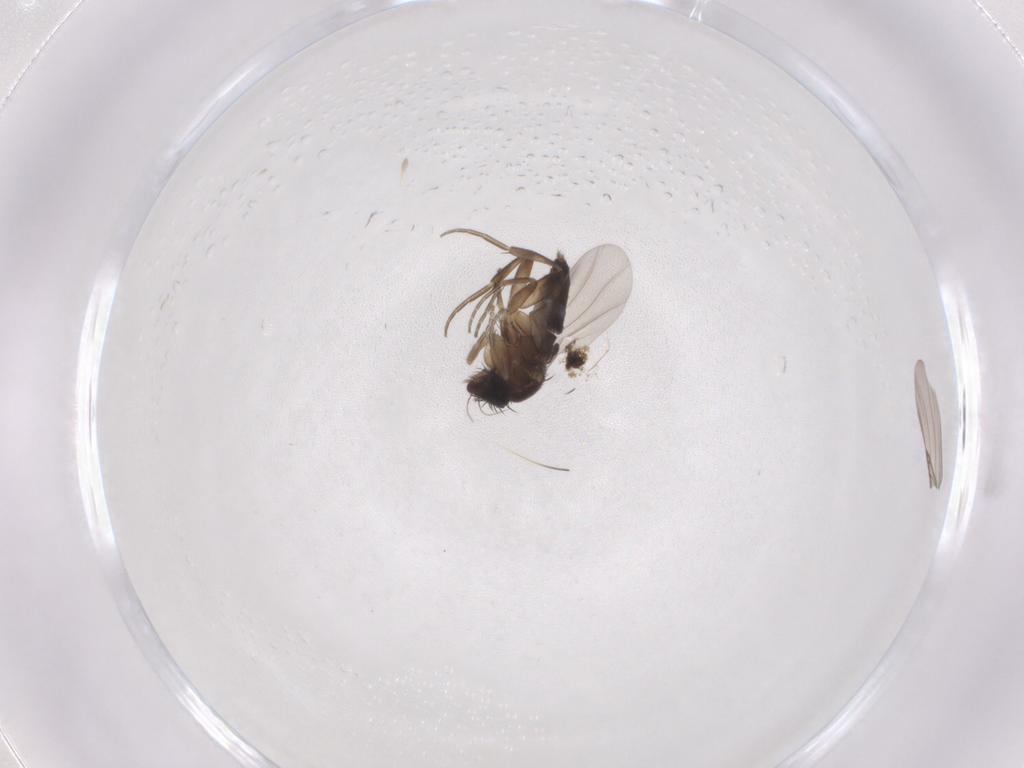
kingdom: Animalia
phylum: Arthropoda
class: Insecta
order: Diptera
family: Phoridae
